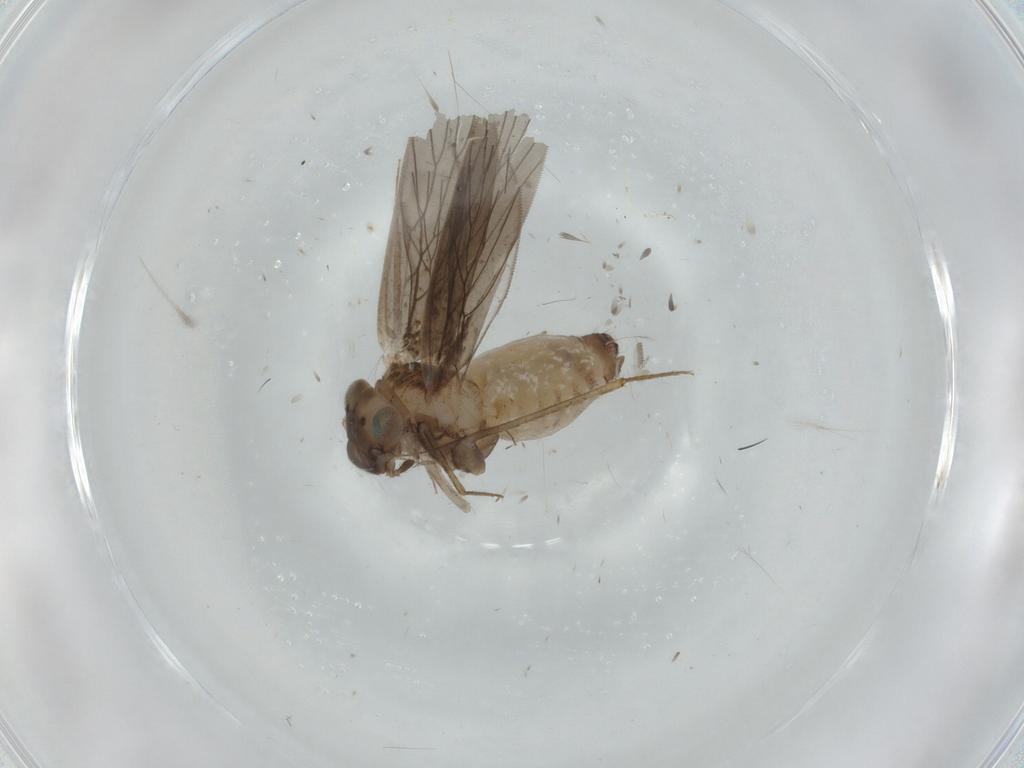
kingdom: Animalia
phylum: Arthropoda
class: Insecta
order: Psocodea
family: Lepidopsocidae
